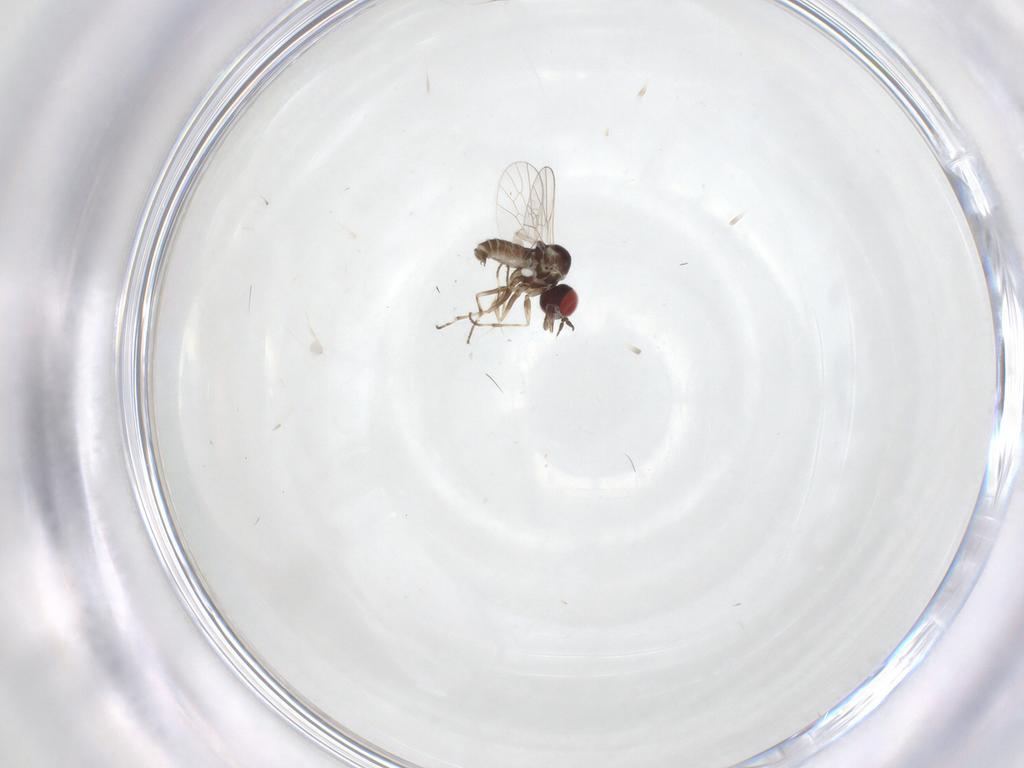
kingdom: Animalia
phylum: Arthropoda
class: Insecta
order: Diptera
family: Mythicomyiidae
